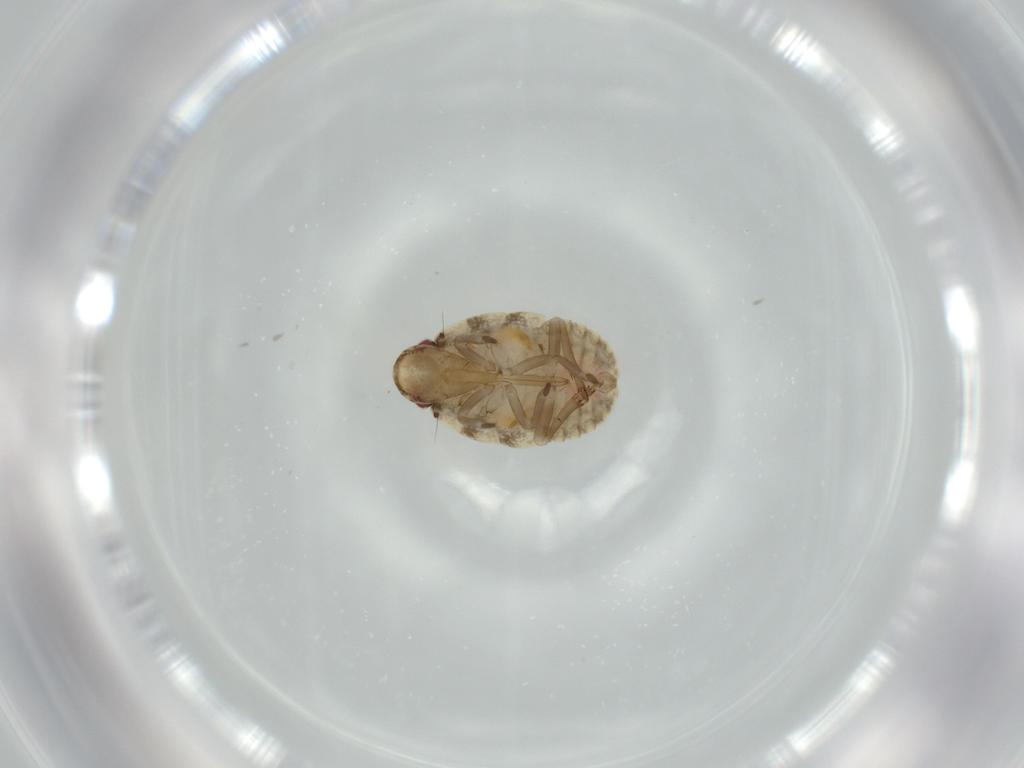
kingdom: Animalia
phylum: Arthropoda
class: Insecta
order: Hemiptera
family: Flatidae
